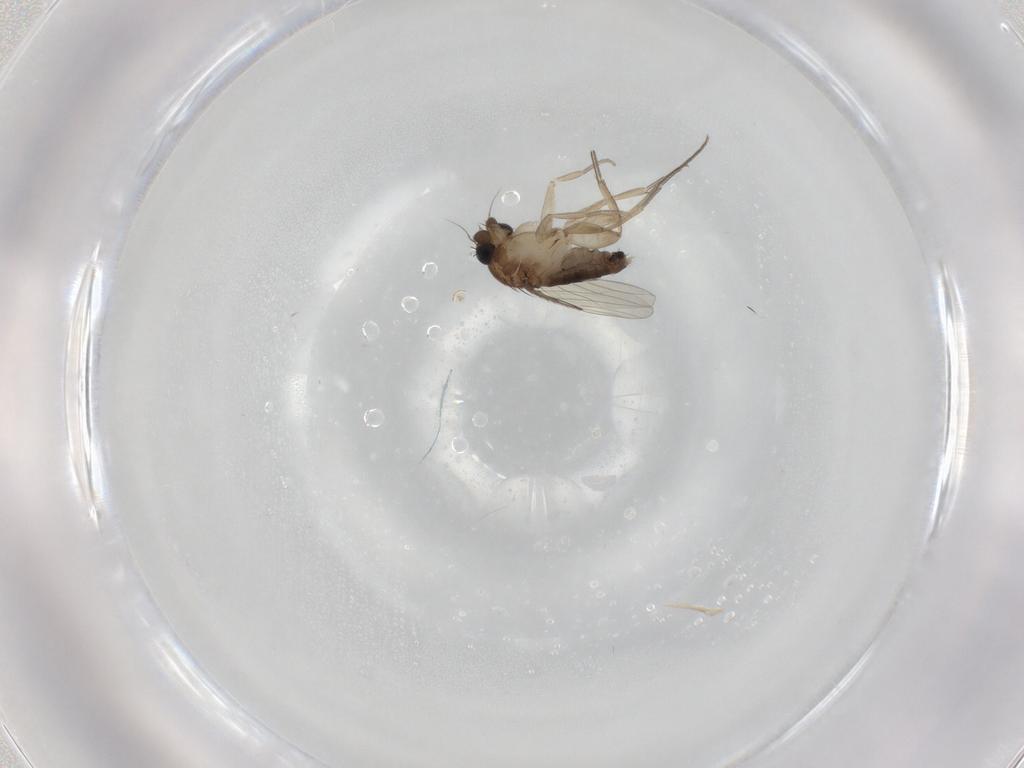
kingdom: Animalia
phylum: Arthropoda
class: Insecta
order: Diptera
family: Phoridae
